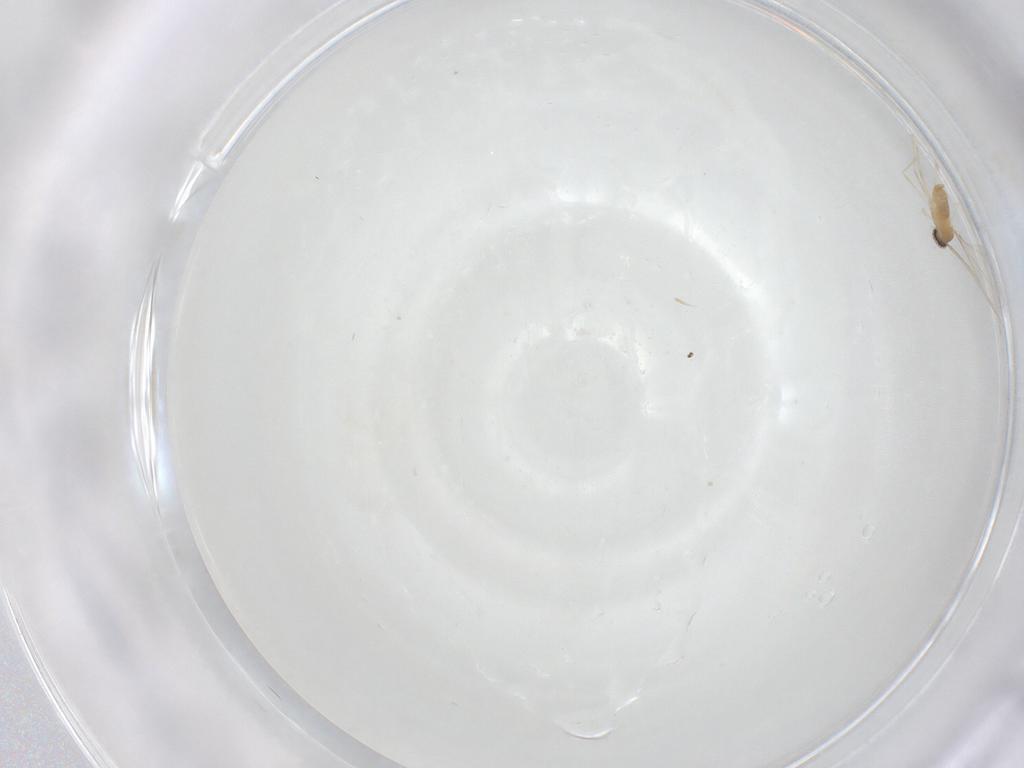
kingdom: Animalia
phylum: Arthropoda
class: Insecta
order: Diptera
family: Cecidomyiidae
